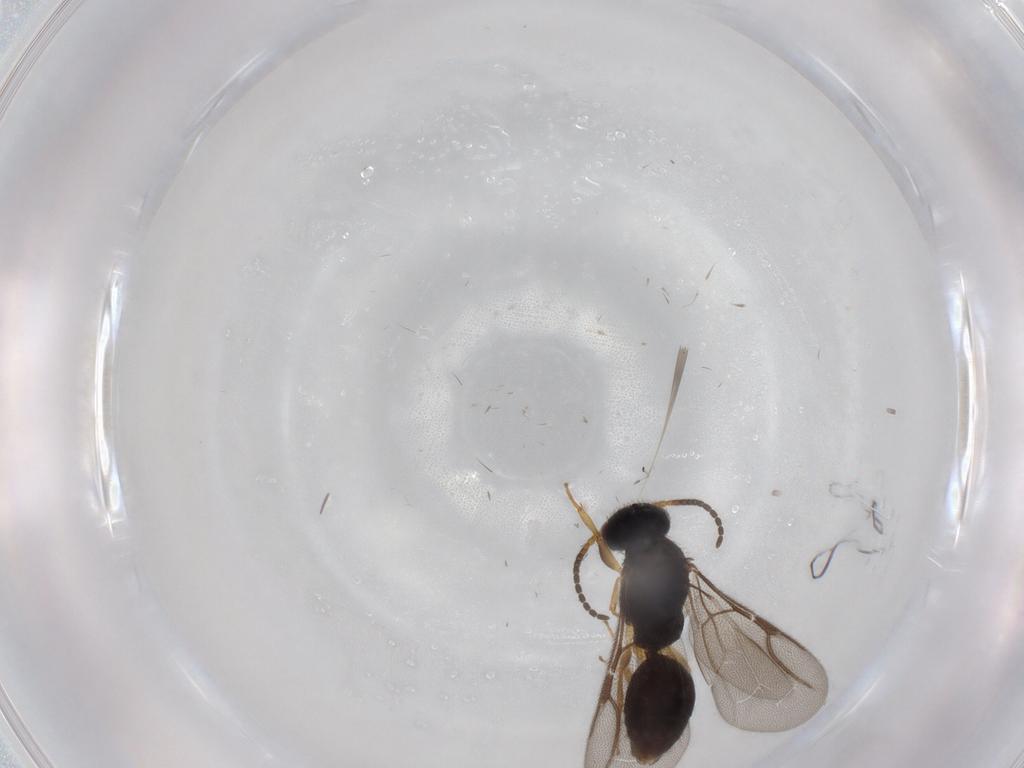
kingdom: Animalia
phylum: Arthropoda
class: Insecta
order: Hymenoptera
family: Bethylidae
